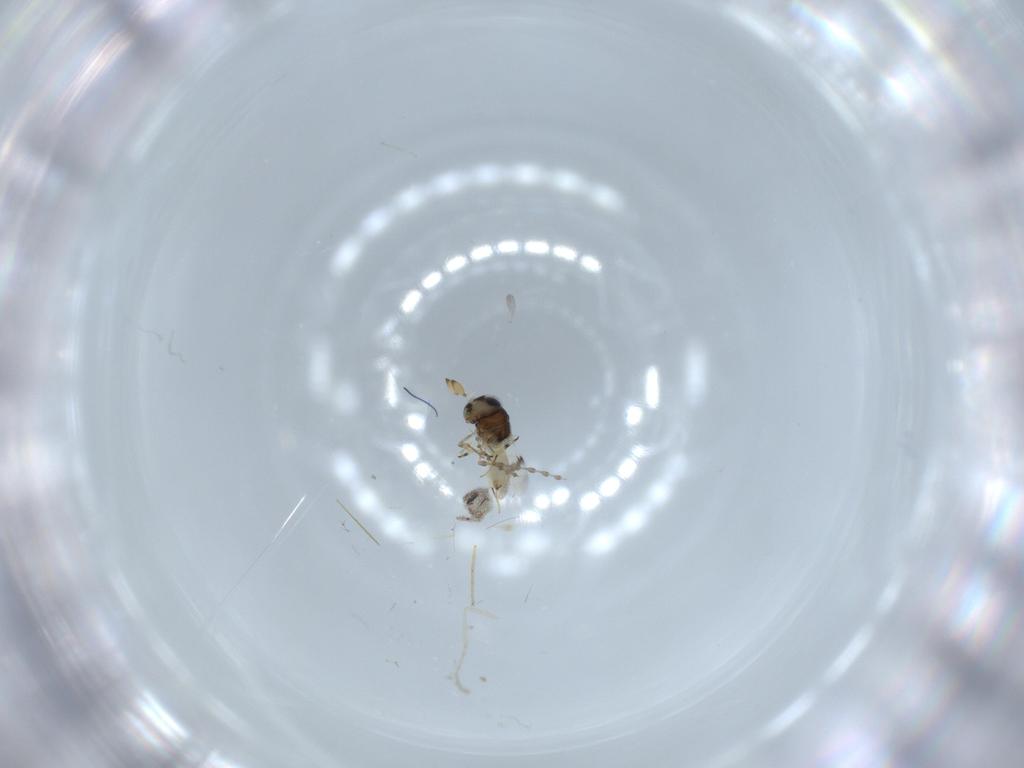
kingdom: Animalia
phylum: Arthropoda
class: Insecta
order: Hymenoptera
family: Scelionidae
